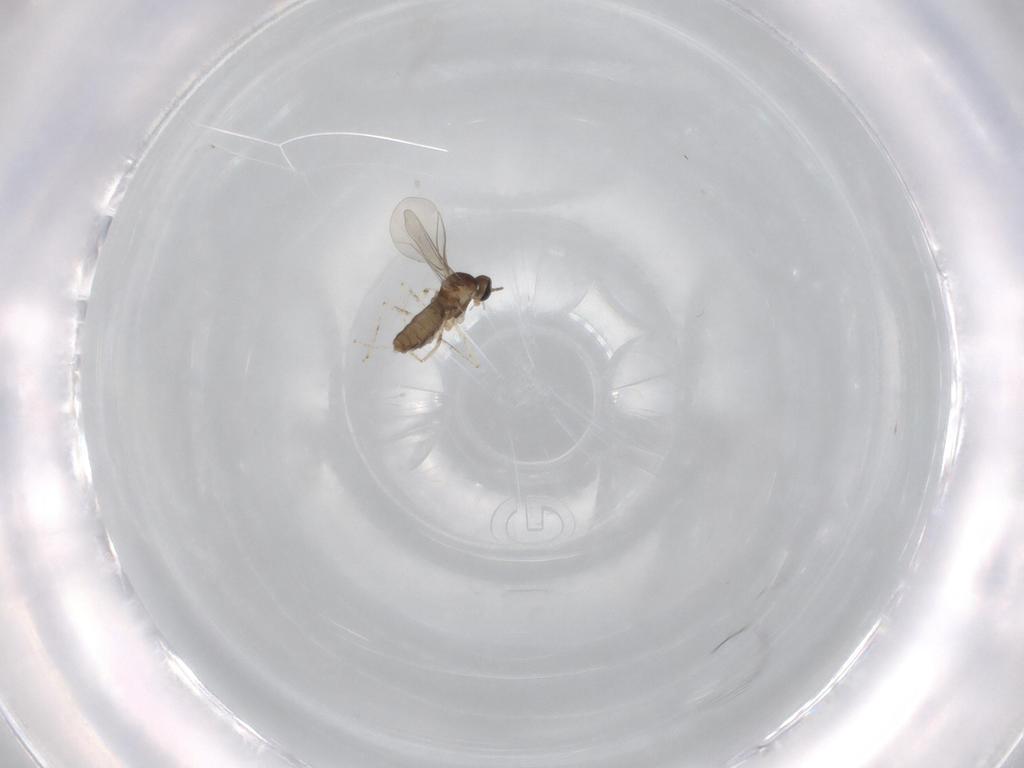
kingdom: Animalia
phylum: Arthropoda
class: Insecta
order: Diptera
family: Cecidomyiidae
